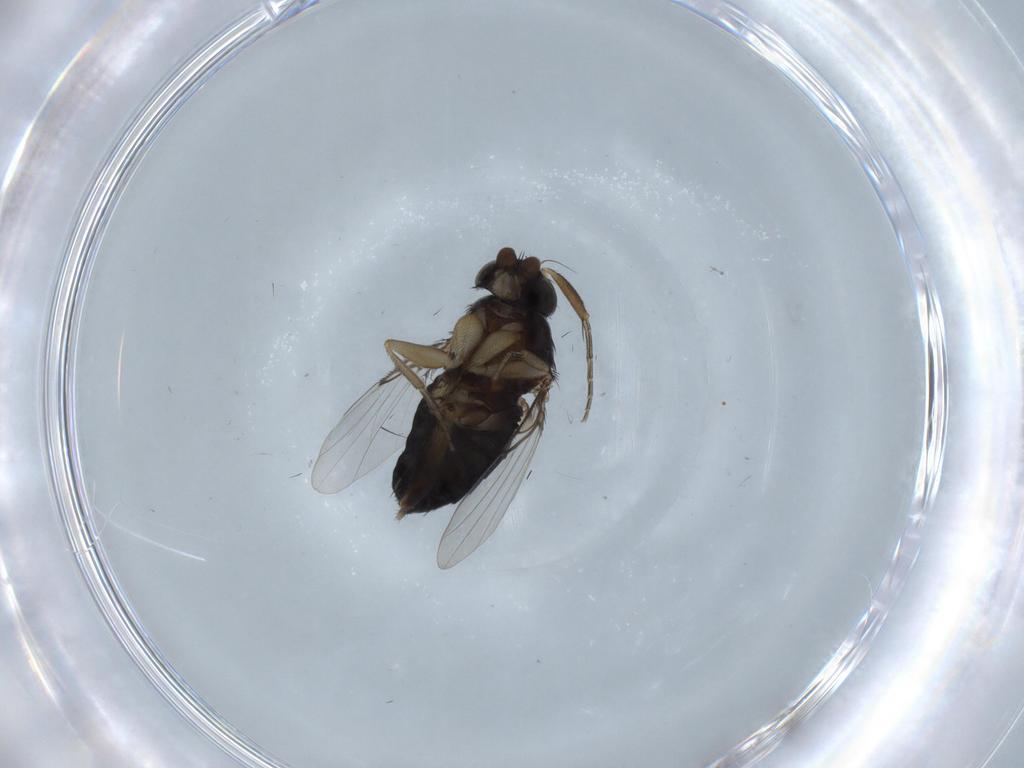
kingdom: Animalia
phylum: Arthropoda
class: Insecta
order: Diptera
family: Phoridae
